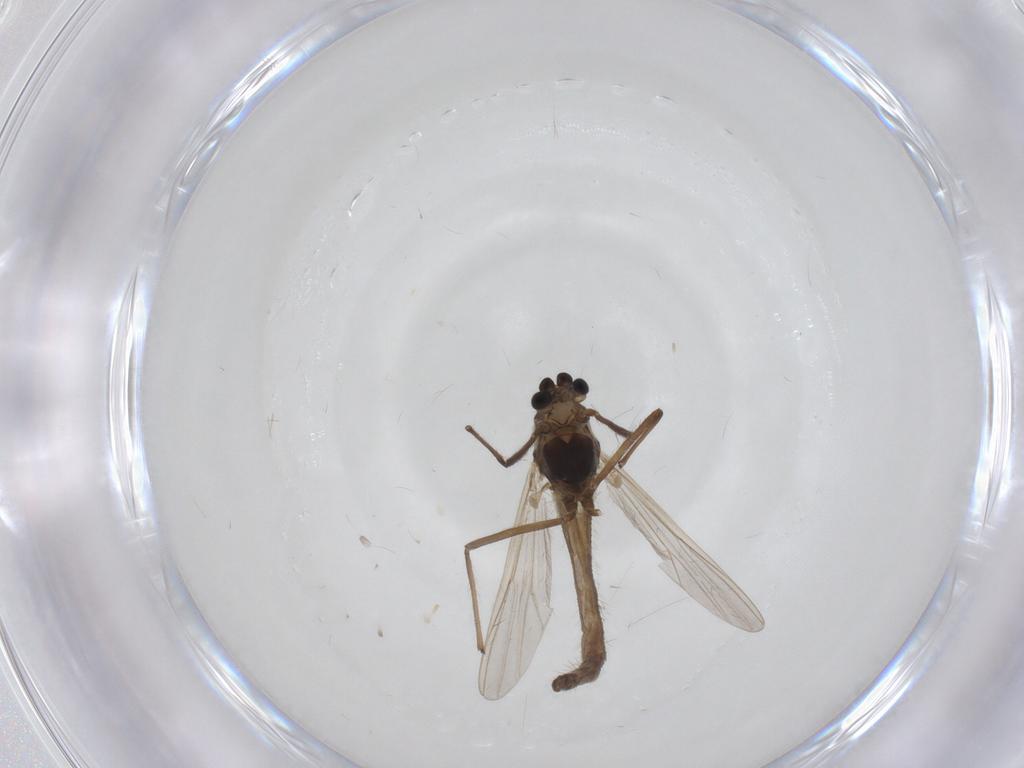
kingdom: Animalia
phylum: Arthropoda
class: Insecta
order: Diptera
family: Chironomidae
